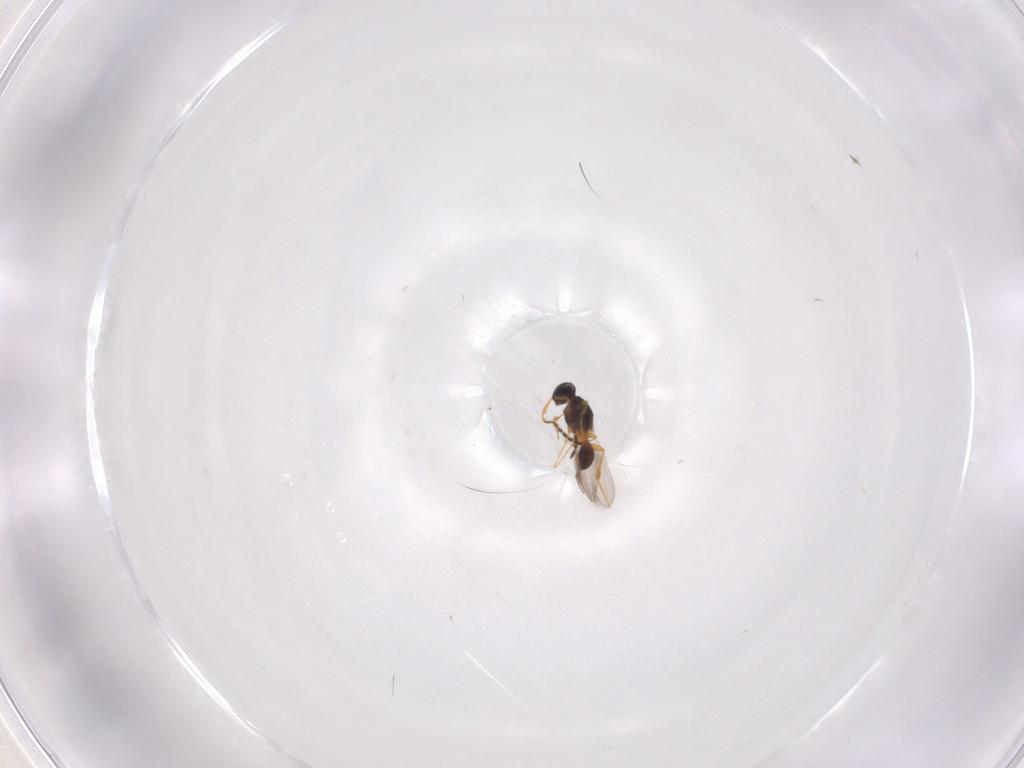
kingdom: Animalia
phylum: Arthropoda
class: Insecta
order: Hymenoptera
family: Platygastridae
